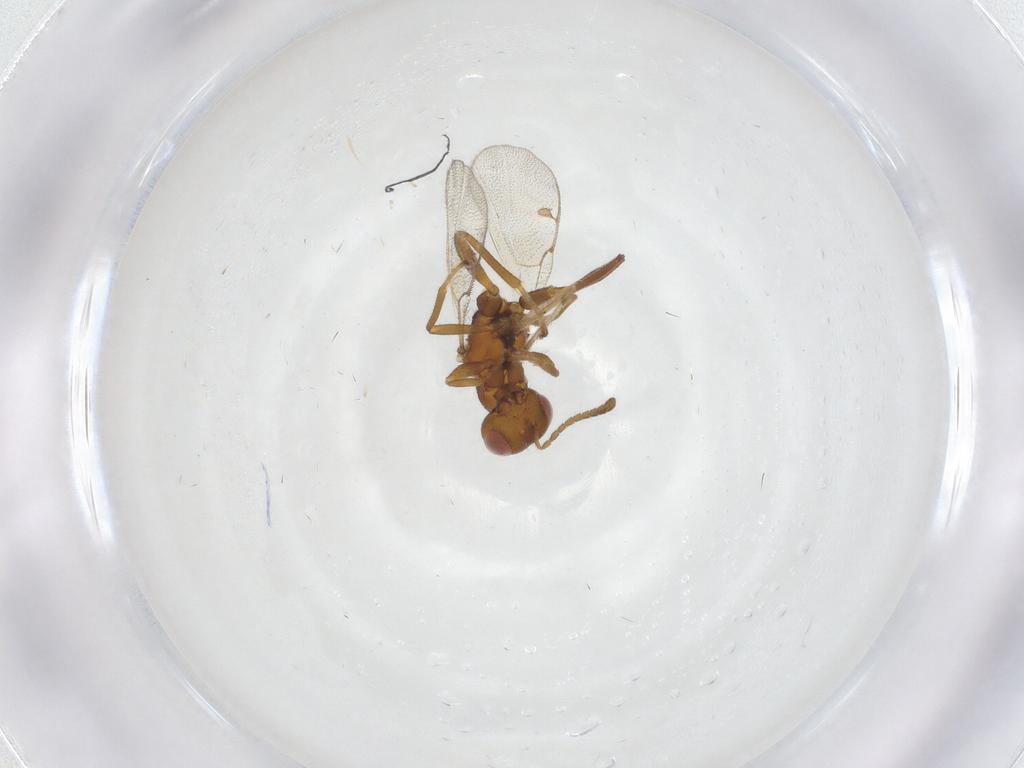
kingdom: Animalia
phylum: Arthropoda
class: Insecta
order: Hymenoptera
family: Megastigmidae
